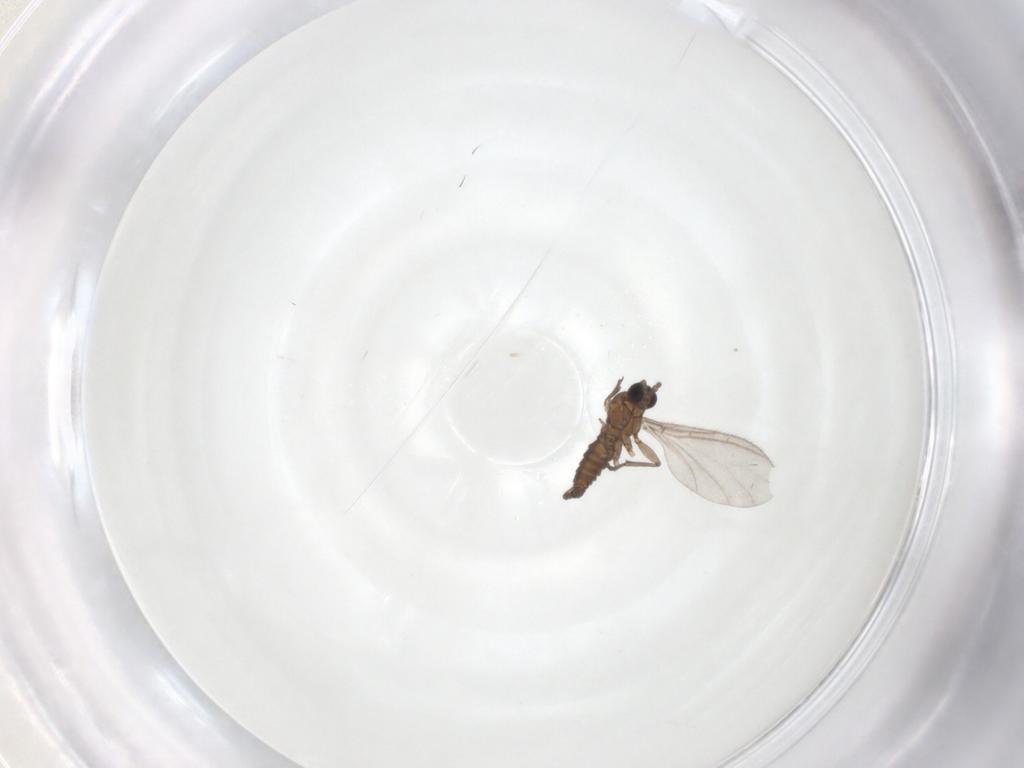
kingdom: Animalia
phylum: Arthropoda
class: Insecta
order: Diptera
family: Sciaridae
